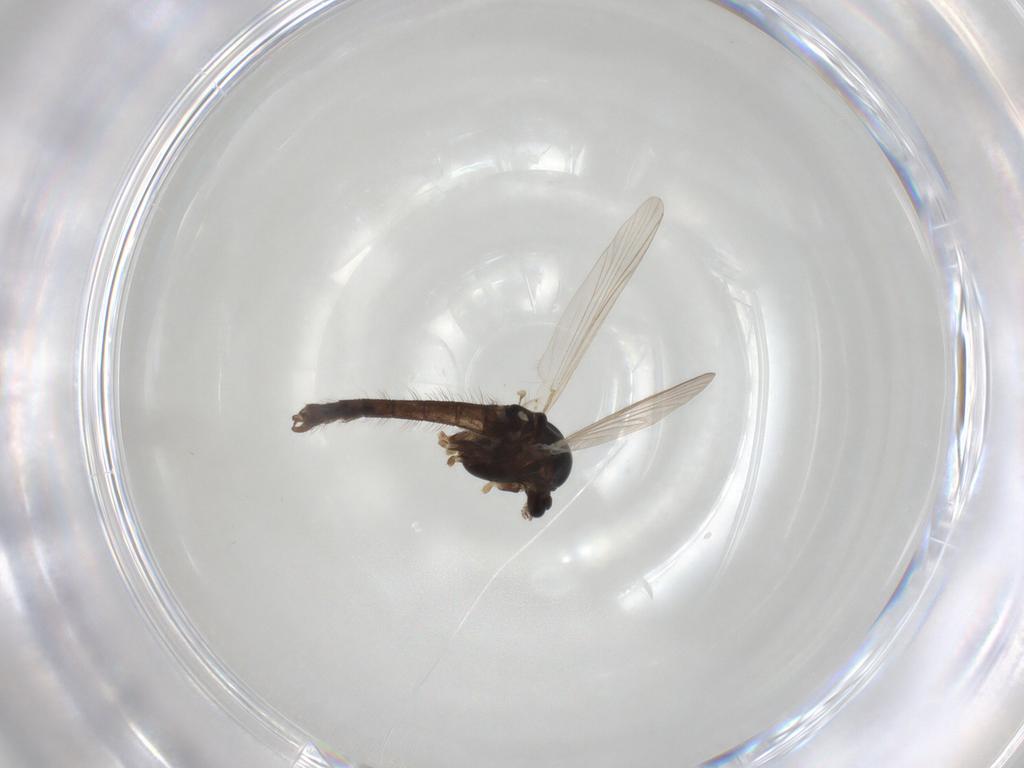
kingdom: Animalia
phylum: Arthropoda
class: Insecta
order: Diptera
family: Chironomidae
